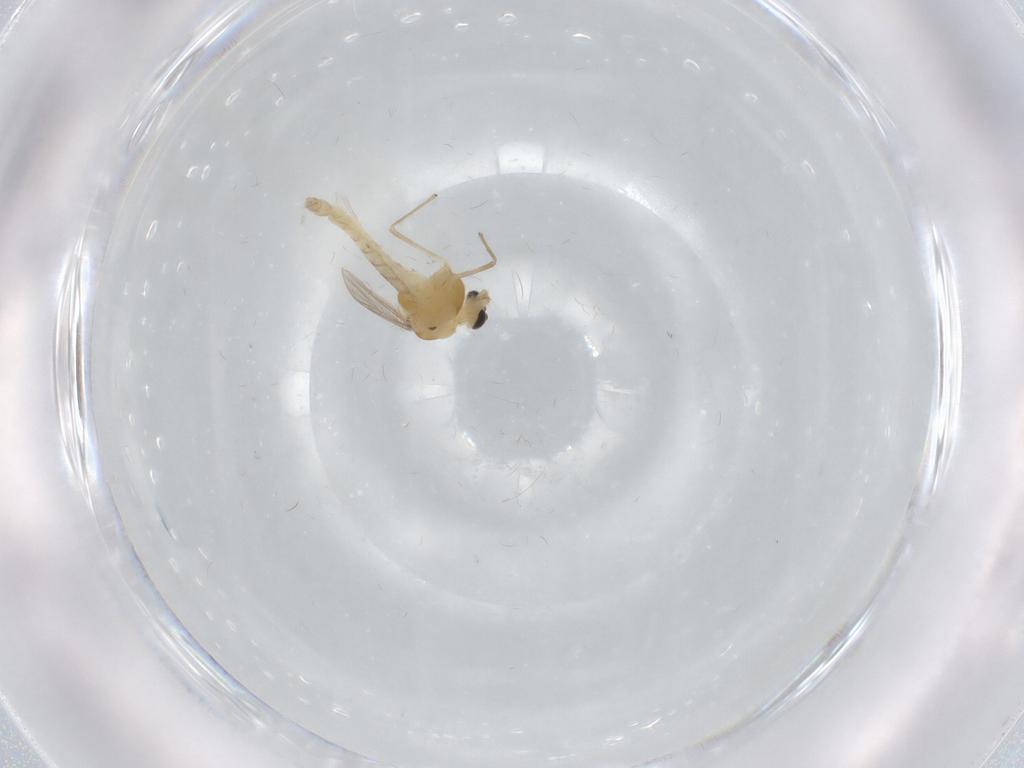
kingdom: Animalia
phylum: Arthropoda
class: Insecta
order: Diptera
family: Chironomidae
